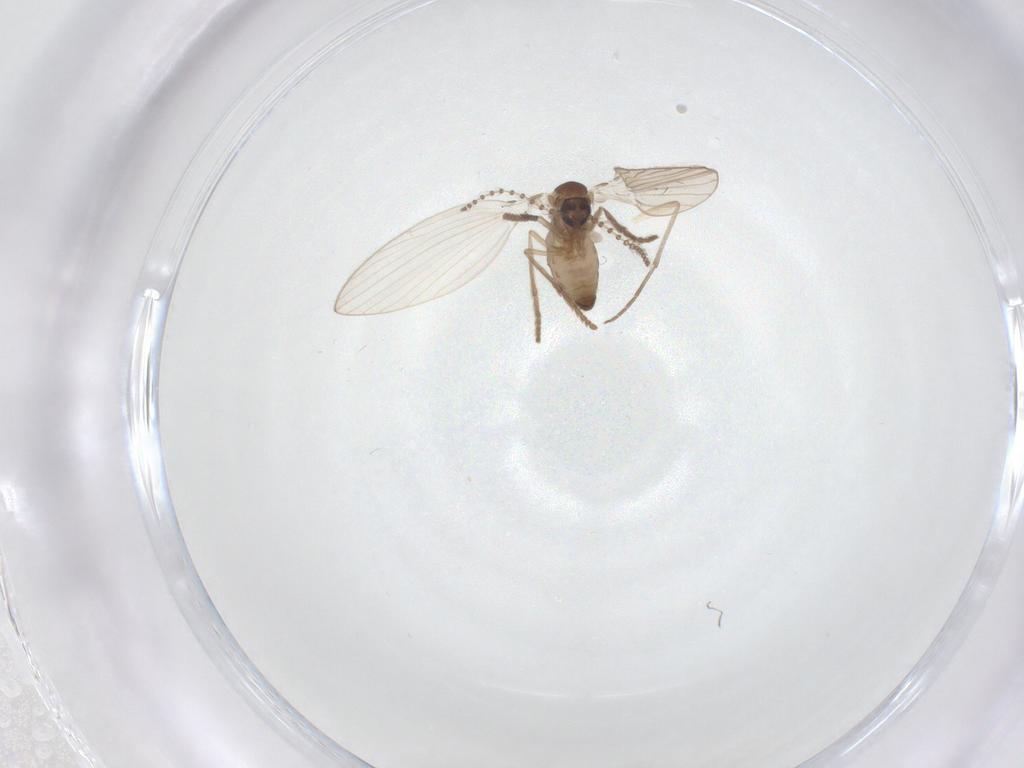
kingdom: Animalia
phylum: Arthropoda
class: Insecta
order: Diptera
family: Psychodidae
